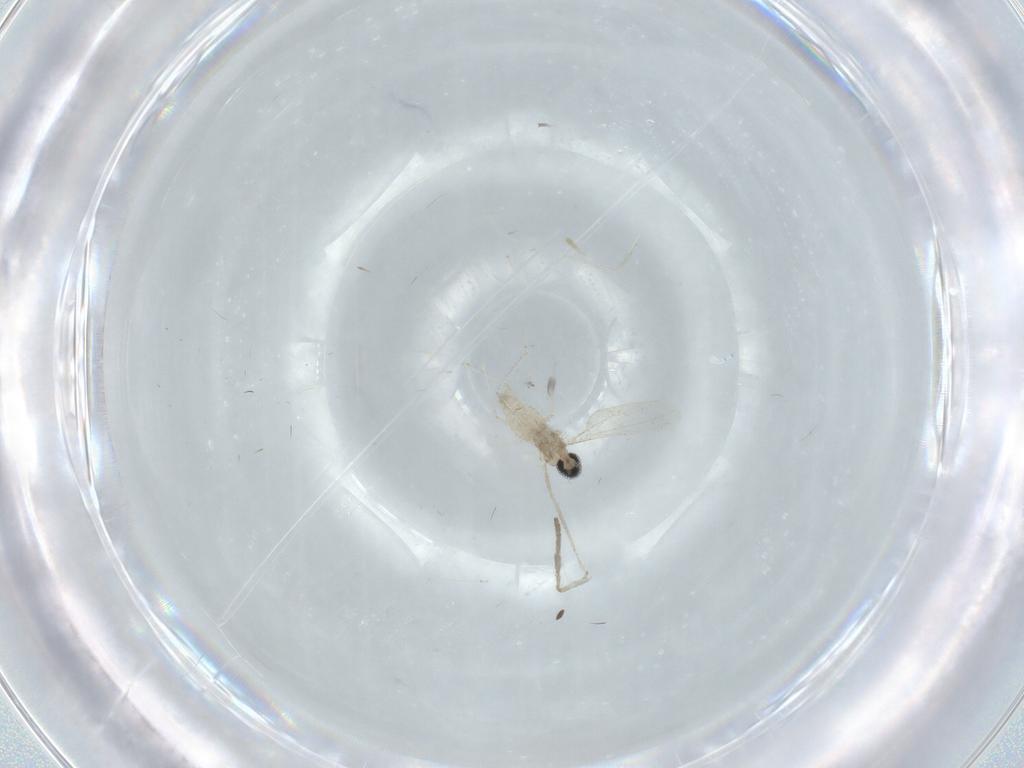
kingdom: Animalia
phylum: Arthropoda
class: Insecta
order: Diptera
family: Cecidomyiidae
